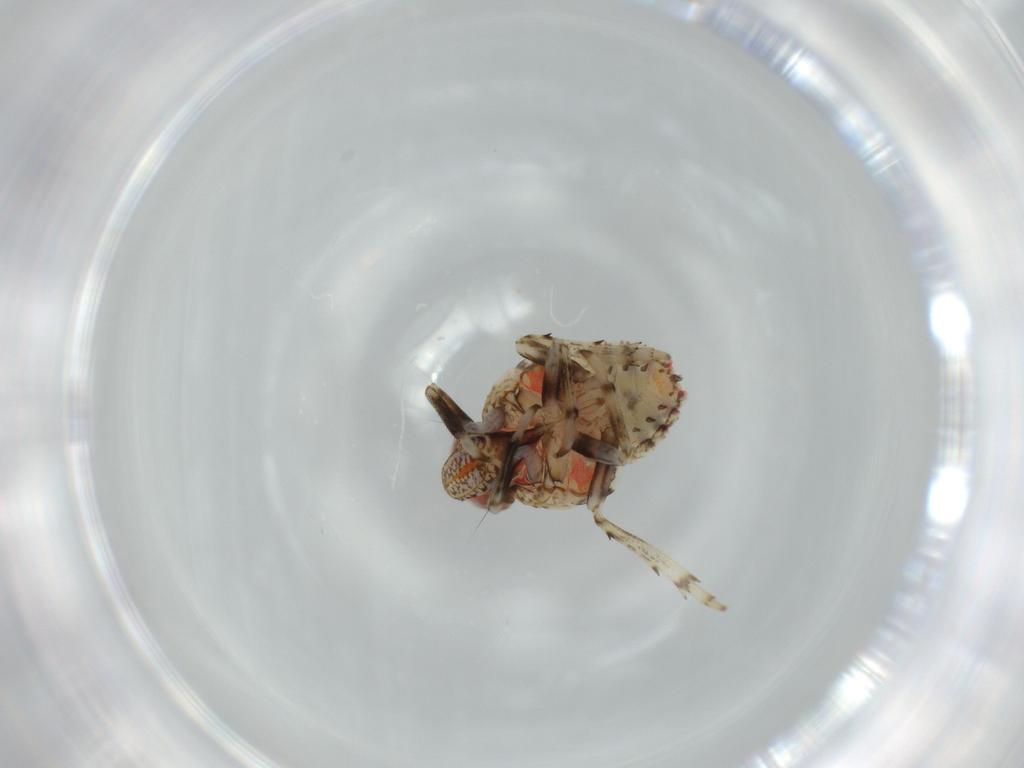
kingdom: Animalia
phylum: Arthropoda
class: Insecta
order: Hemiptera
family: Issidae
